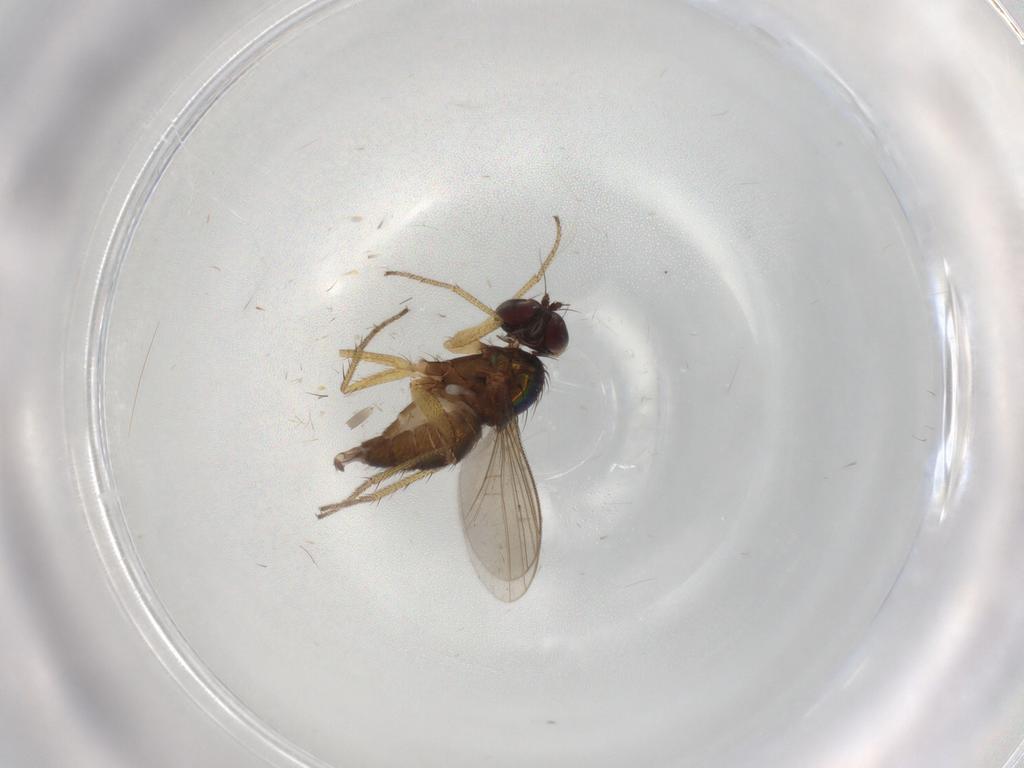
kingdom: Animalia
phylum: Arthropoda
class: Insecta
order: Diptera
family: Dolichopodidae
